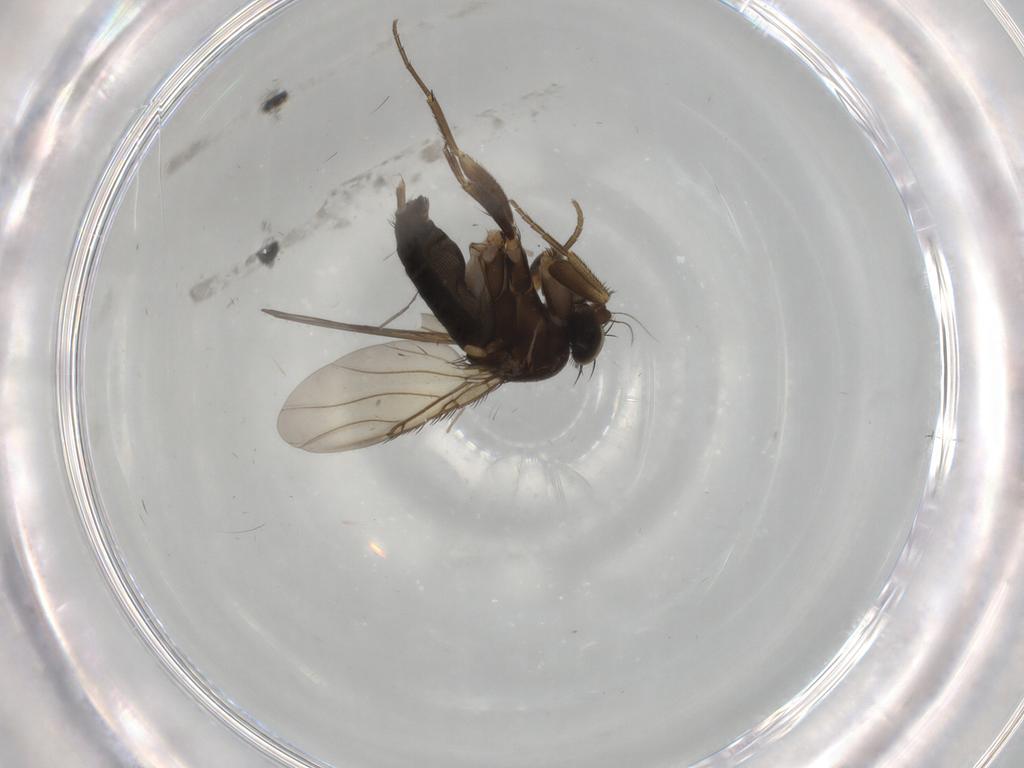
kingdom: Animalia
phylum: Arthropoda
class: Insecta
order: Diptera
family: Phoridae
